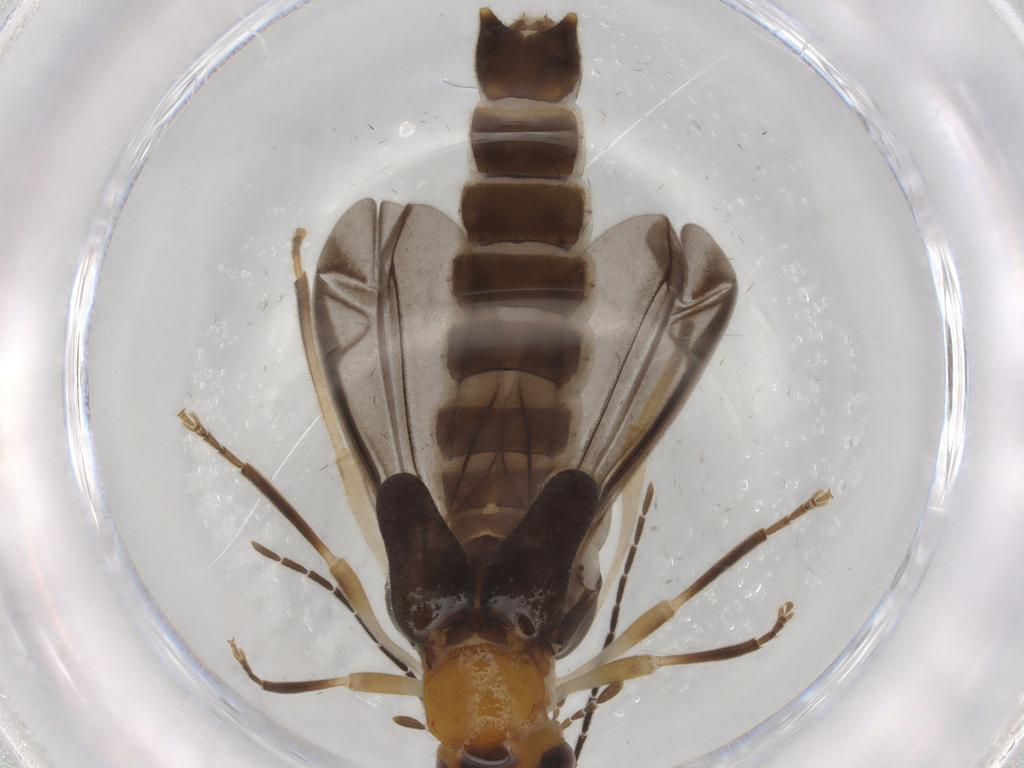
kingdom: Animalia
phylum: Arthropoda
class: Insecta
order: Coleoptera
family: Cantharidae
